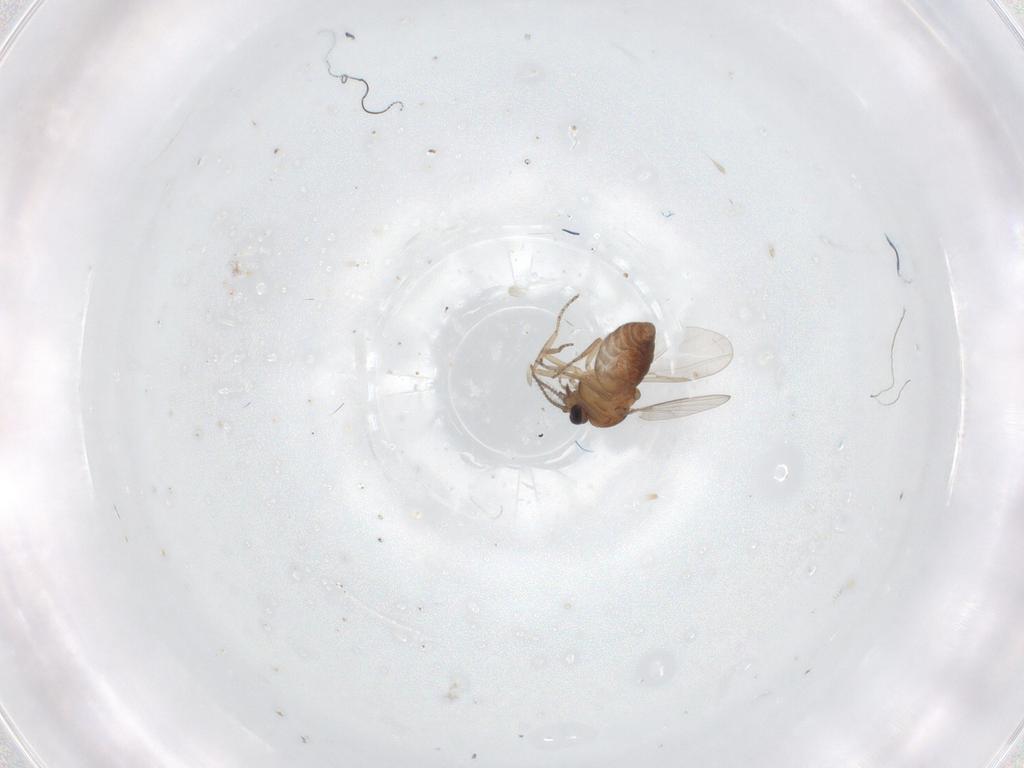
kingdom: Animalia
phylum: Arthropoda
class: Insecta
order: Diptera
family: Ceratopogonidae
